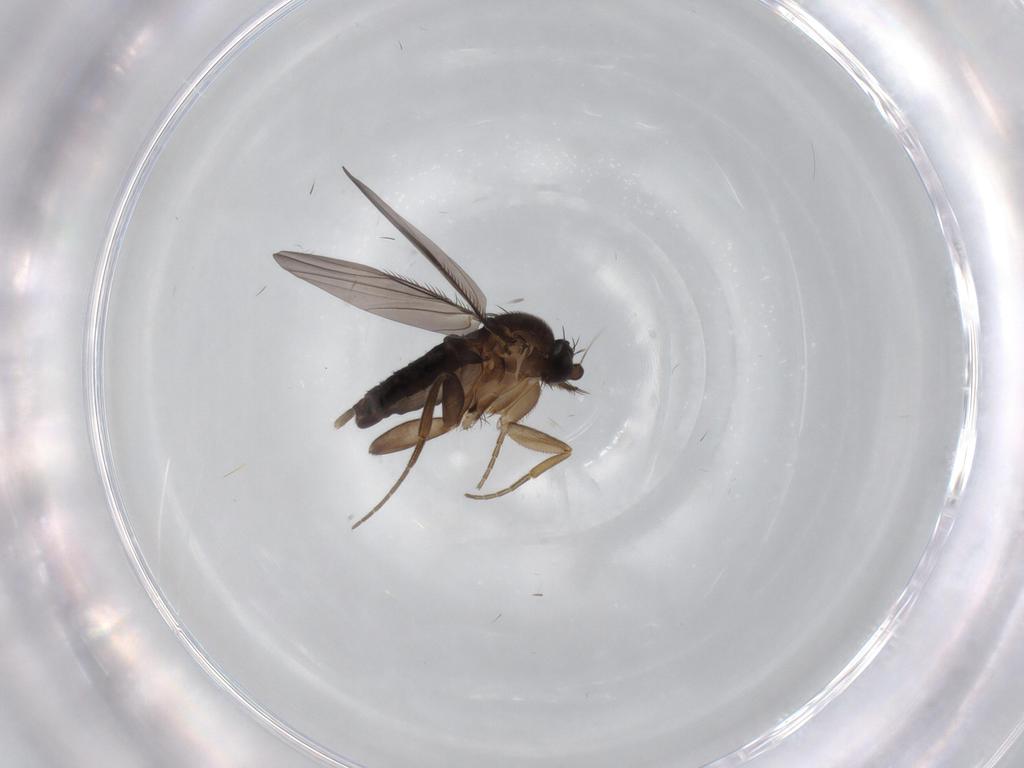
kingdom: Animalia
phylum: Arthropoda
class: Insecta
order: Diptera
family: Phoridae
